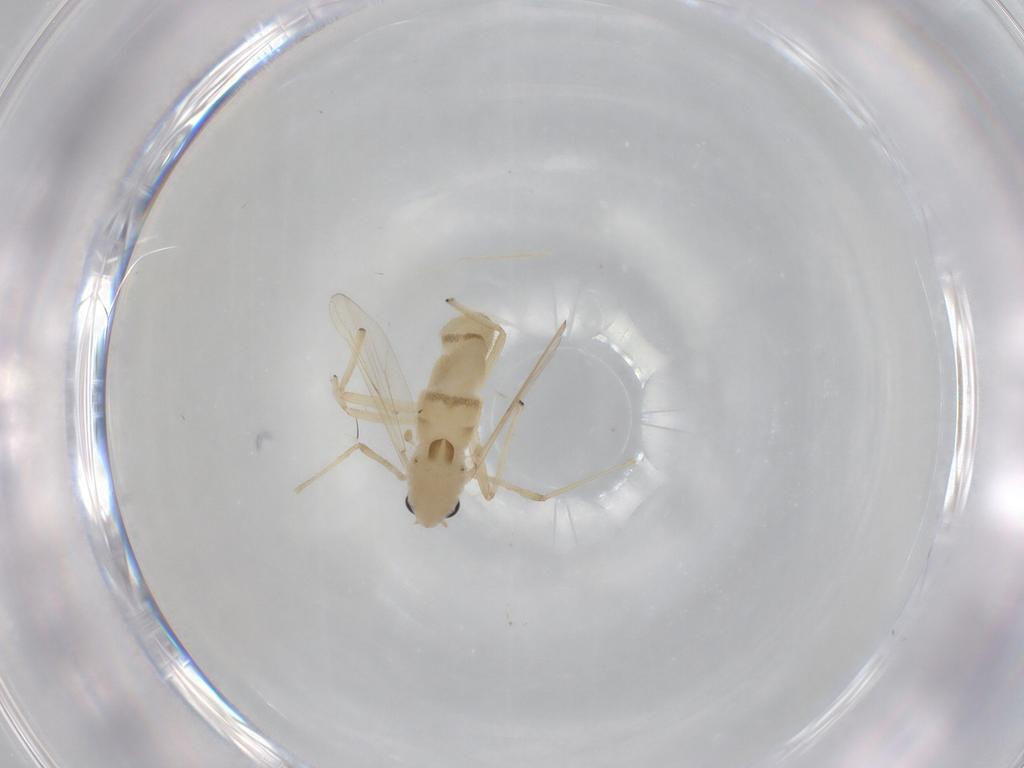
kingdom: Animalia
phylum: Arthropoda
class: Insecta
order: Diptera
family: Chironomidae
